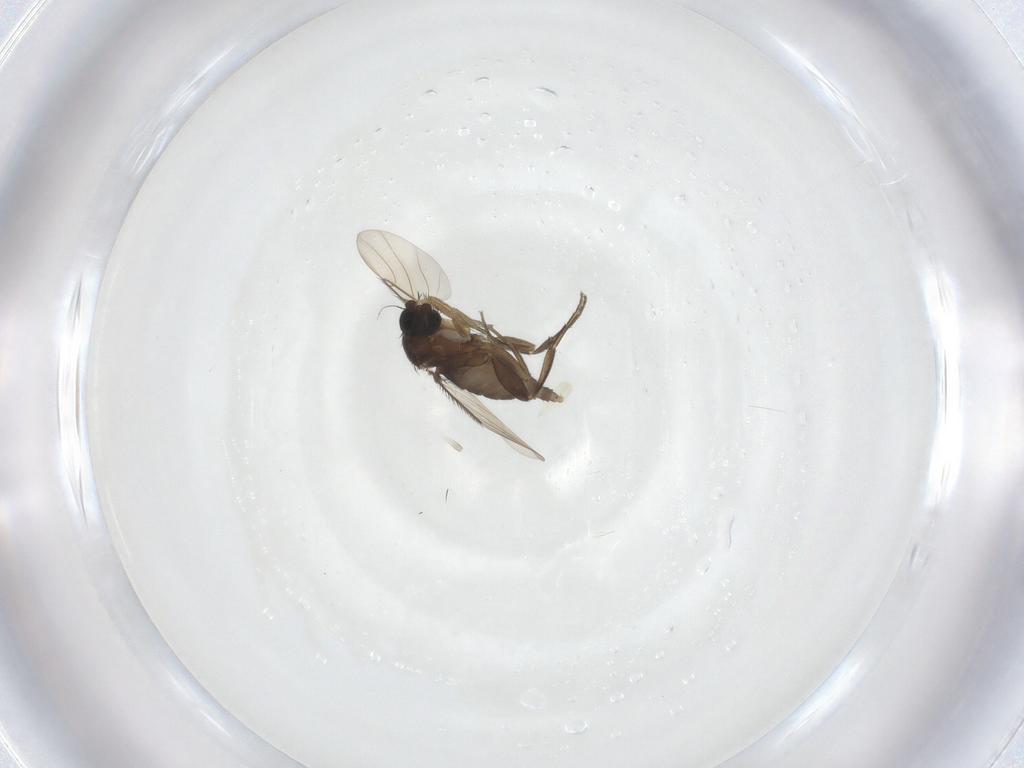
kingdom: Animalia
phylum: Arthropoda
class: Insecta
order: Diptera
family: Phoridae
